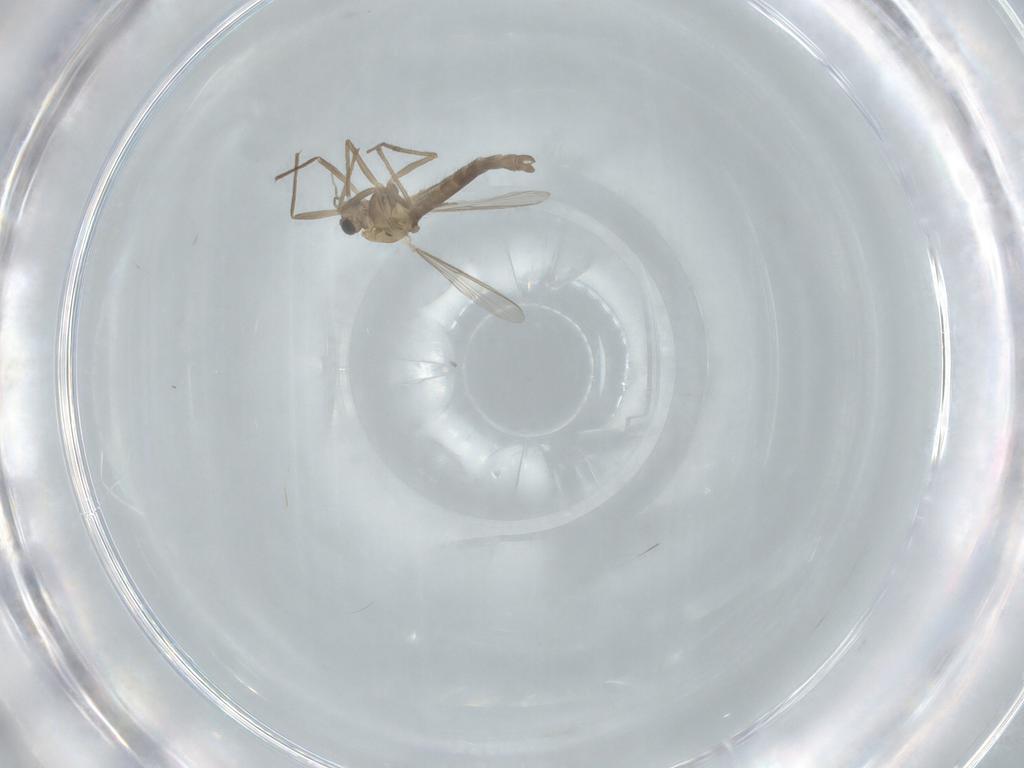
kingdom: Animalia
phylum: Arthropoda
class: Insecta
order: Diptera
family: Chironomidae
